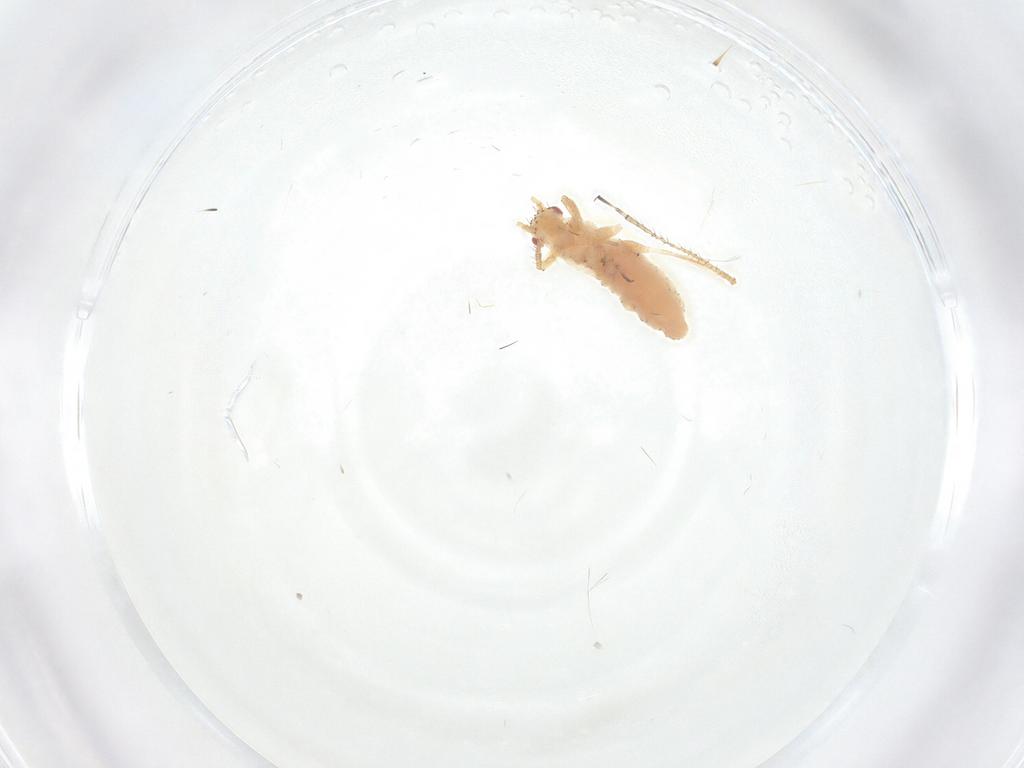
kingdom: Animalia
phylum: Arthropoda
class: Insecta
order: Hemiptera
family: Aphididae
